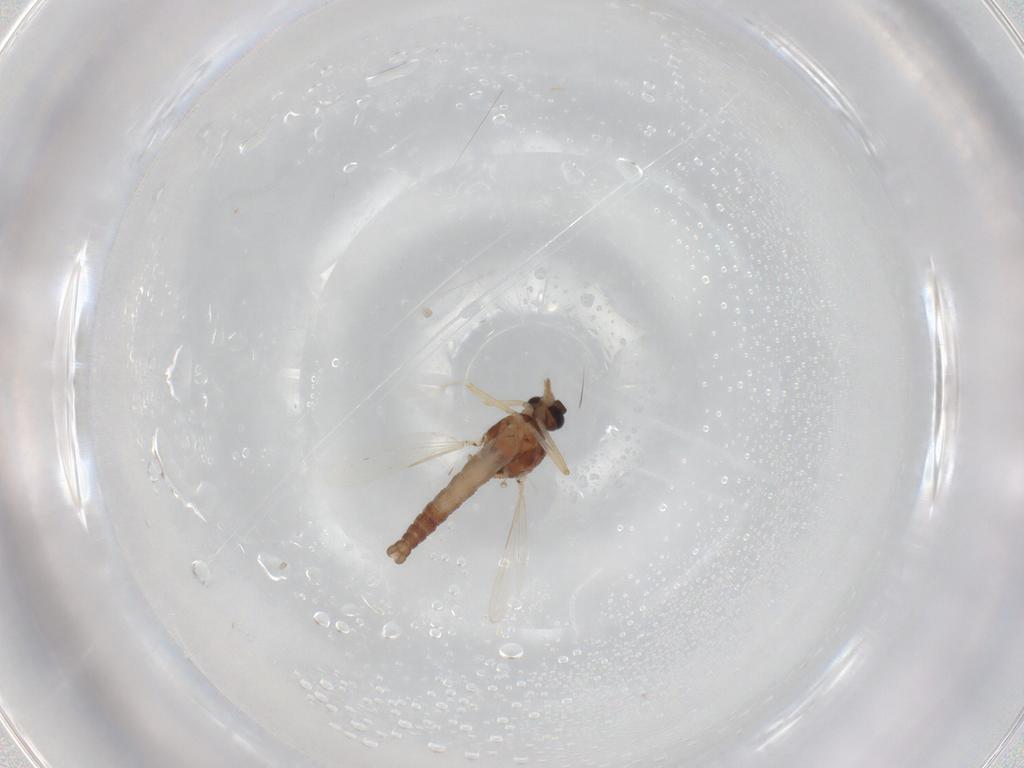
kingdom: Animalia
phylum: Arthropoda
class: Insecta
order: Diptera
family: Ceratopogonidae
